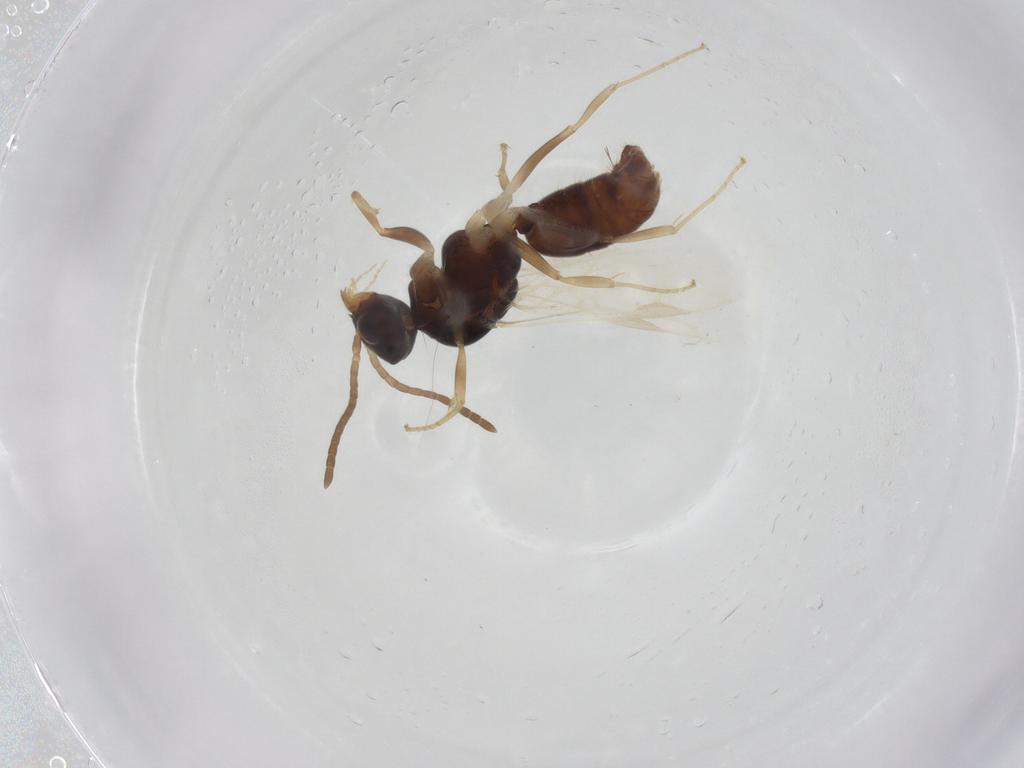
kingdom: Animalia
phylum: Arthropoda
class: Insecta
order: Hymenoptera
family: Formicidae
